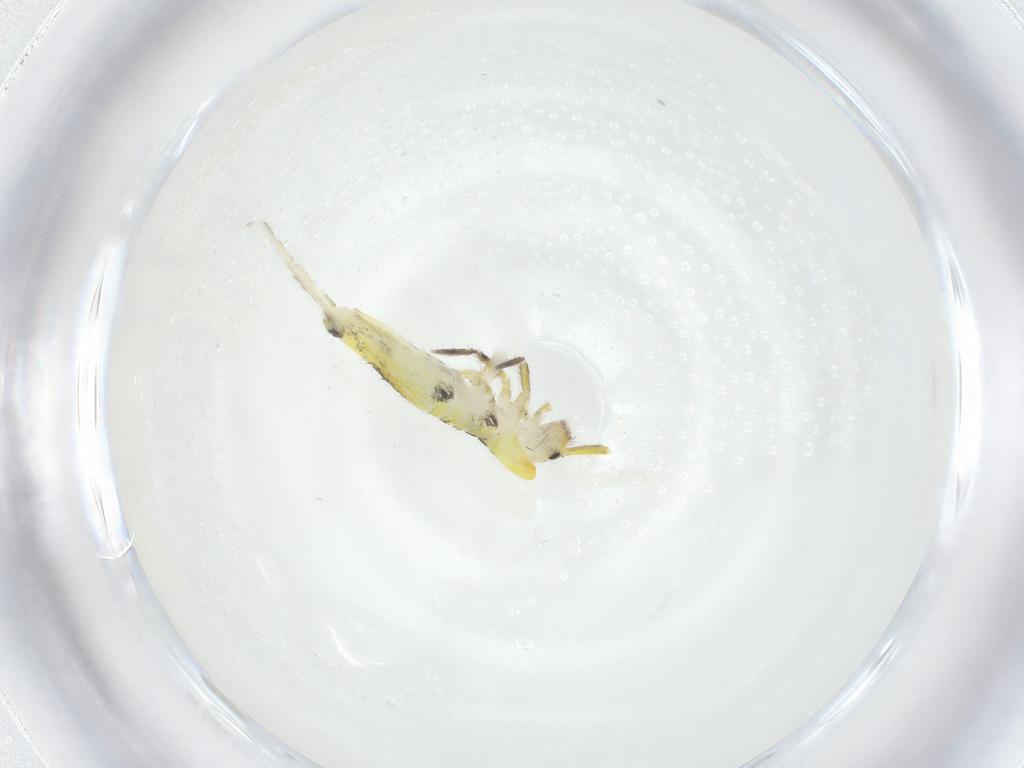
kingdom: Animalia
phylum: Arthropoda
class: Collembola
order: Entomobryomorpha
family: Entomobryidae
